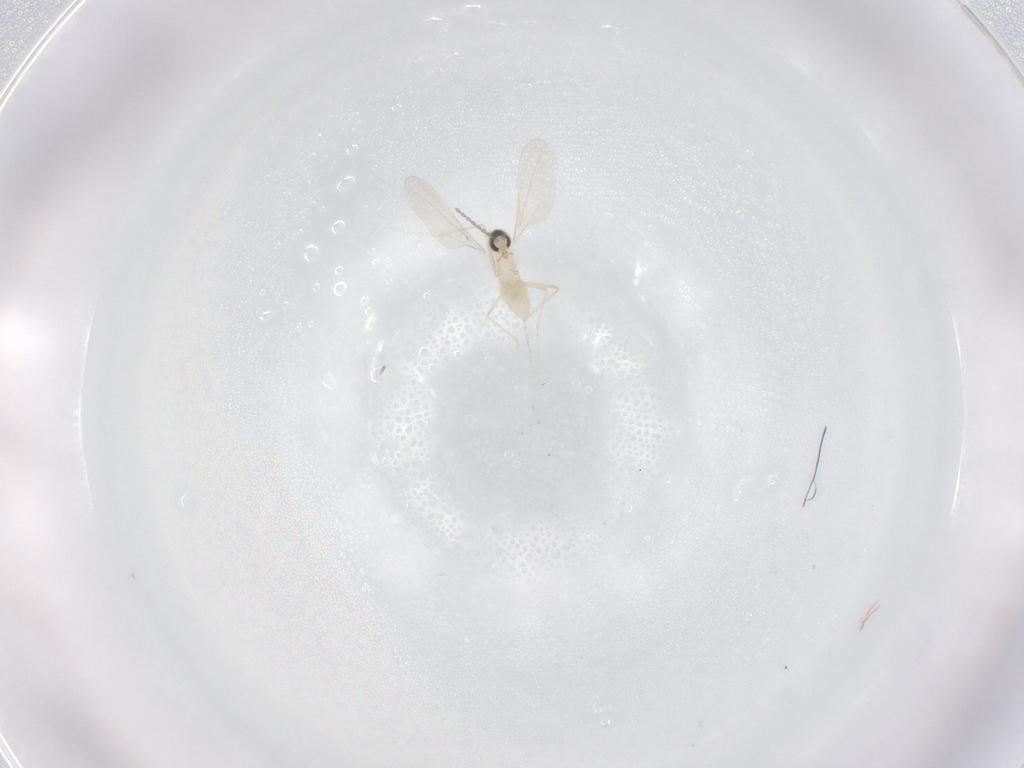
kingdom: Animalia
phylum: Arthropoda
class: Insecta
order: Diptera
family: Cecidomyiidae
